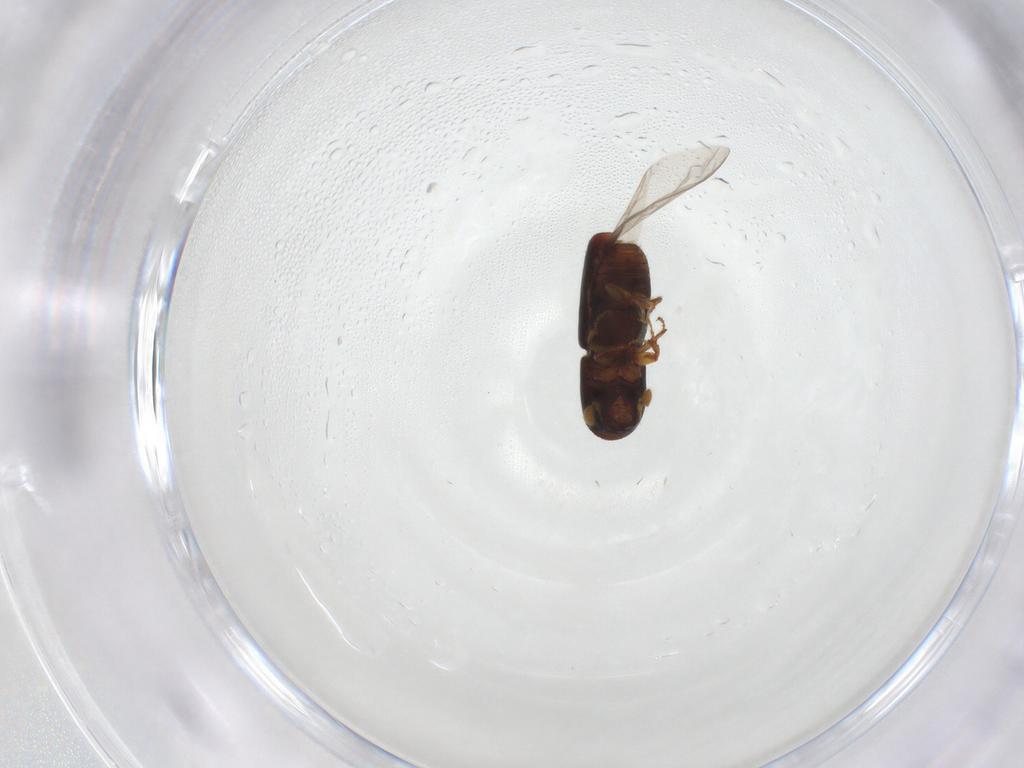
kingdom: Animalia
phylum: Arthropoda
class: Insecta
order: Coleoptera
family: Curculionidae
